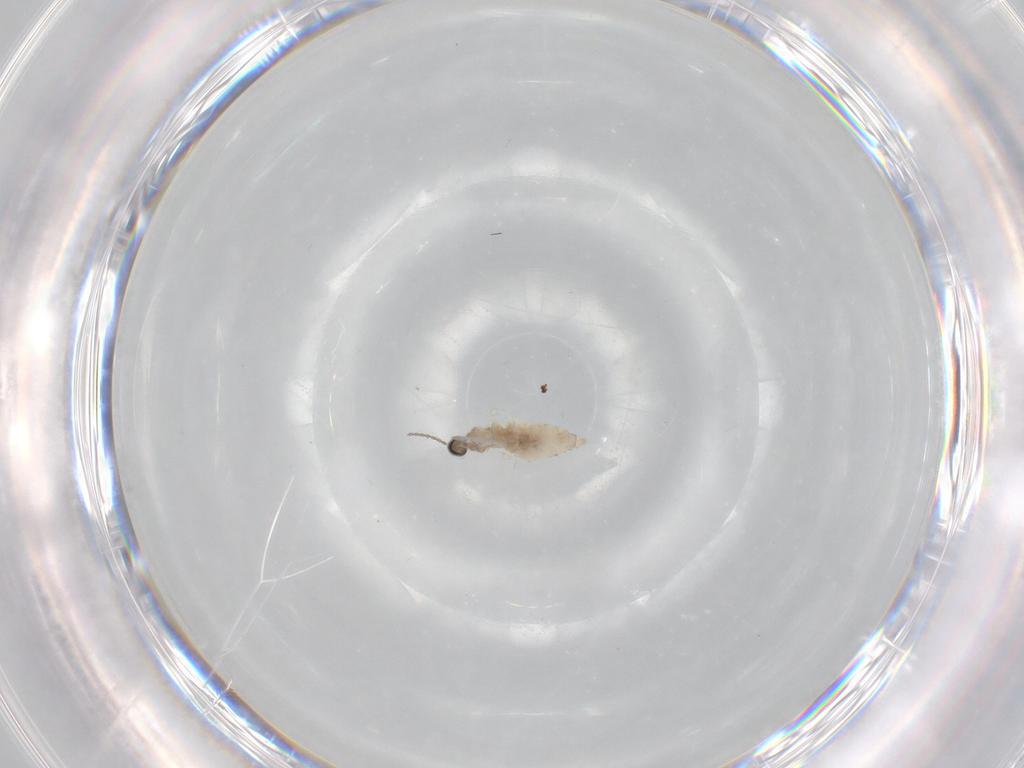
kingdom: Animalia
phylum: Arthropoda
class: Insecta
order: Diptera
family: Cecidomyiidae
